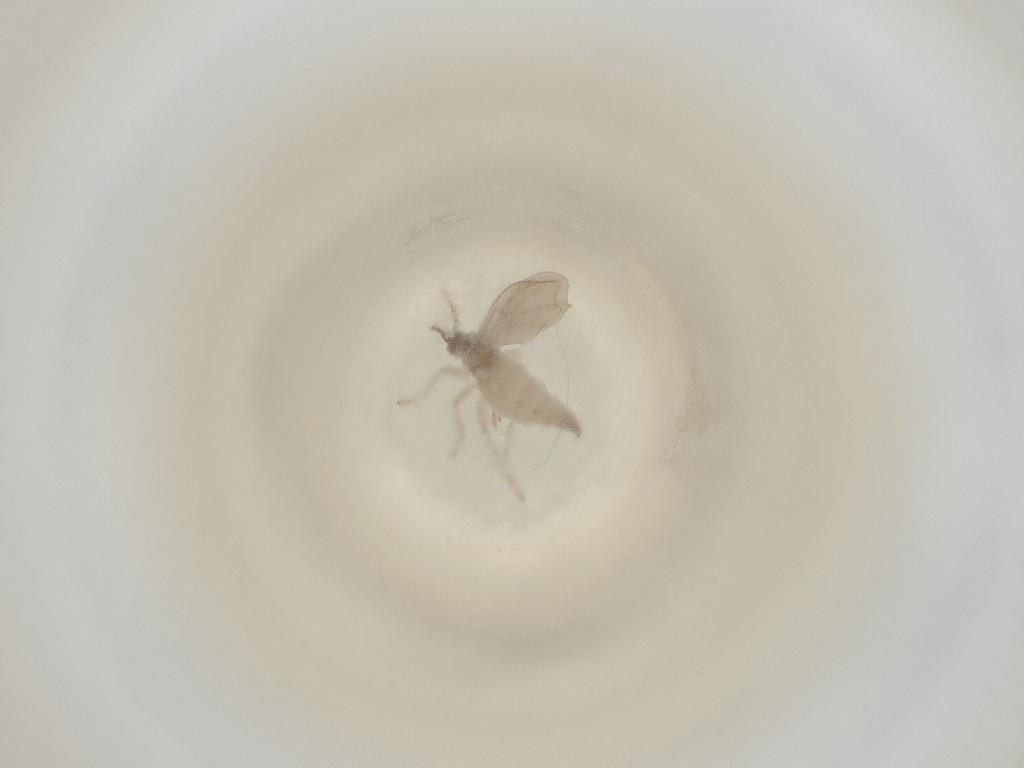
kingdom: Animalia
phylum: Arthropoda
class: Insecta
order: Diptera
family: Cecidomyiidae
